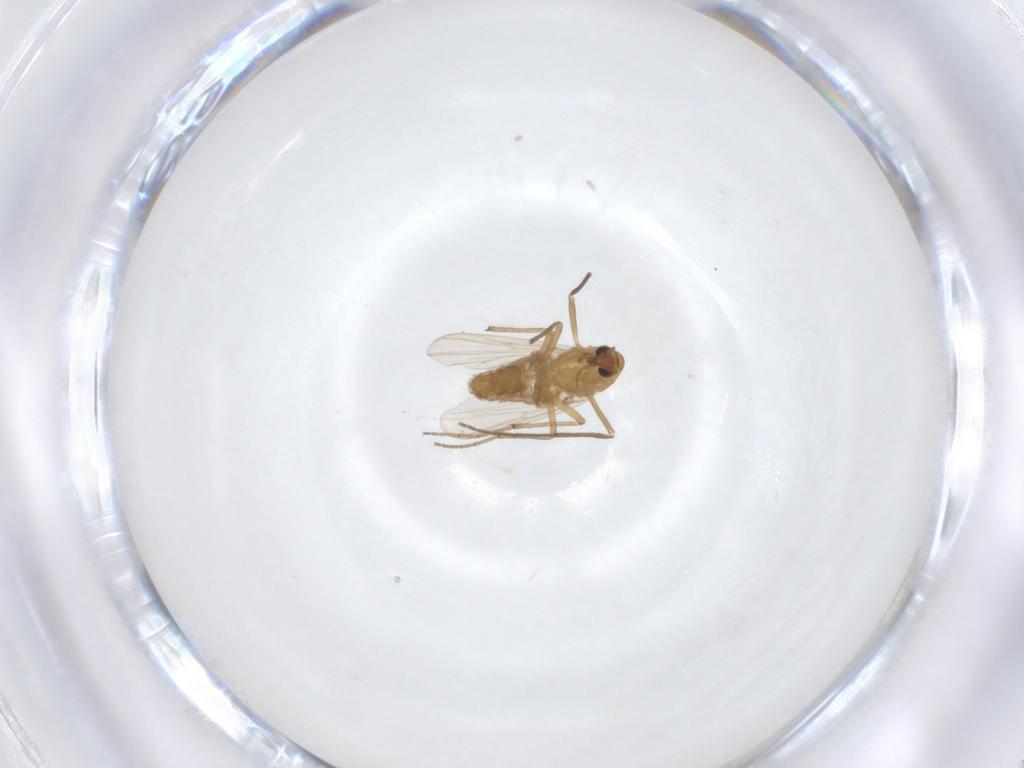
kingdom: Animalia
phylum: Arthropoda
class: Insecta
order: Diptera
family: Chironomidae
